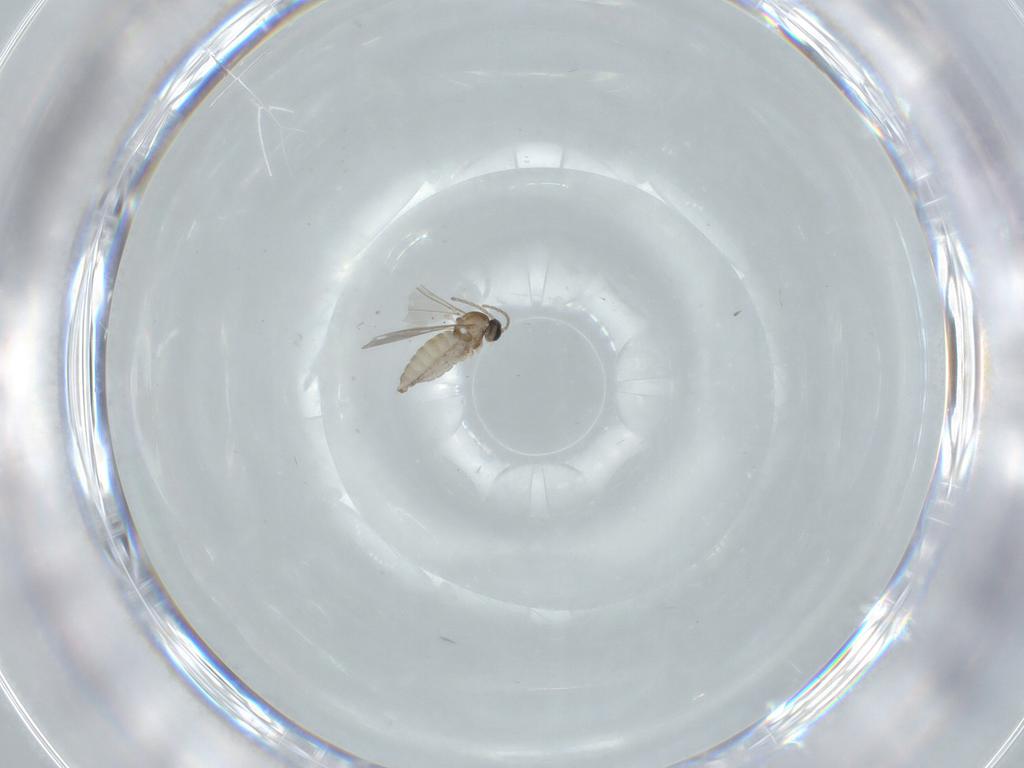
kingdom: Animalia
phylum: Arthropoda
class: Insecta
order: Diptera
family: Cecidomyiidae
